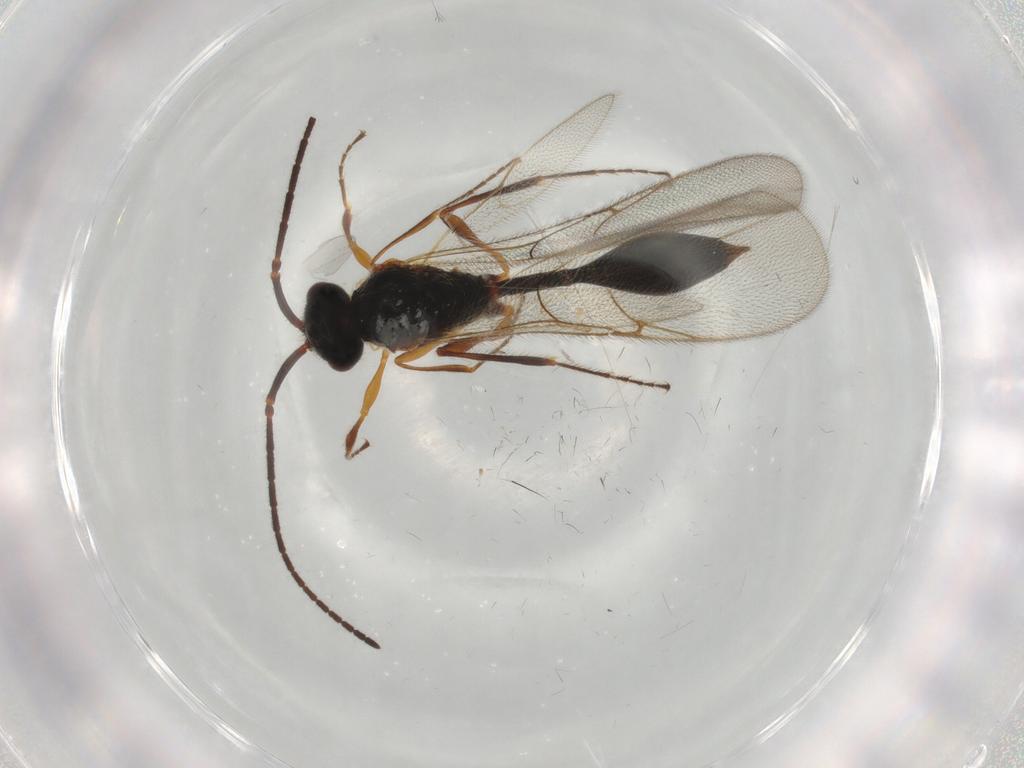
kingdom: Animalia
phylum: Arthropoda
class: Insecta
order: Hymenoptera
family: Diapriidae
